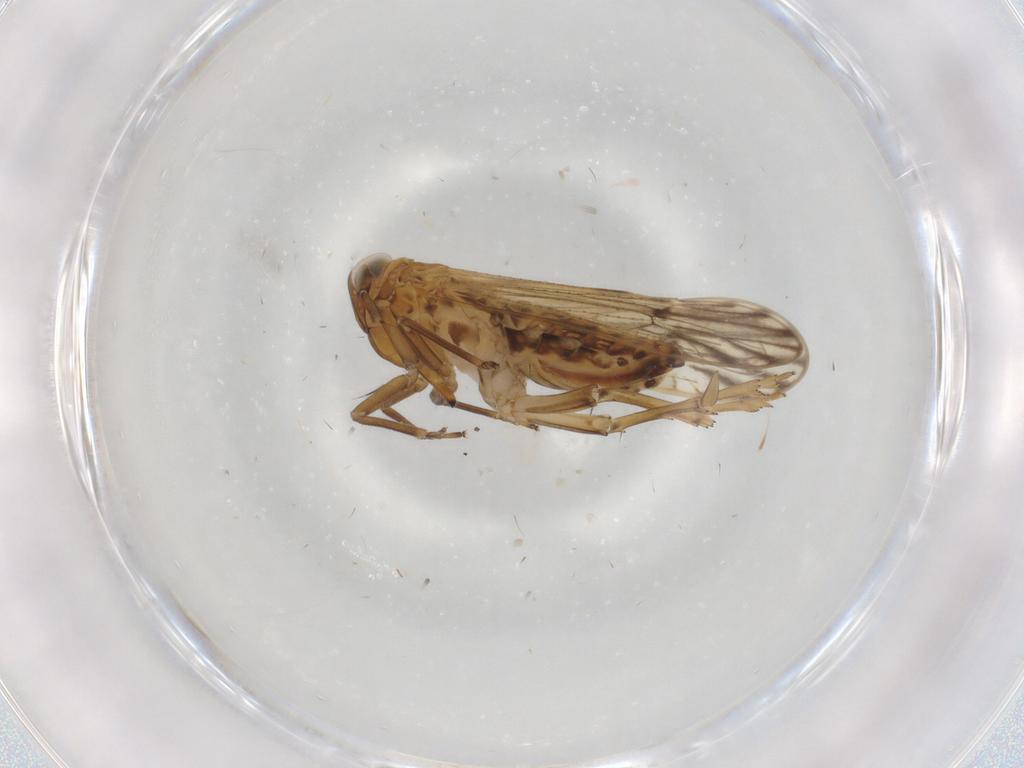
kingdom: Animalia
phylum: Arthropoda
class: Insecta
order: Hemiptera
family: Delphacidae
